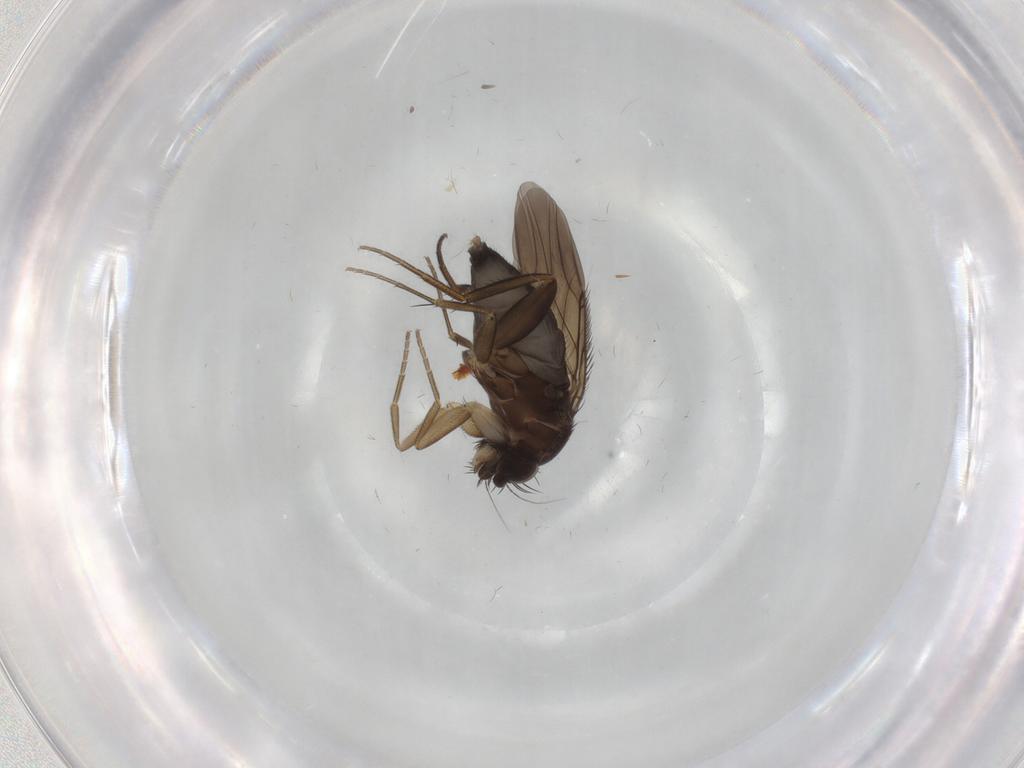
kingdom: Animalia
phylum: Arthropoda
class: Insecta
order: Diptera
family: Phoridae
